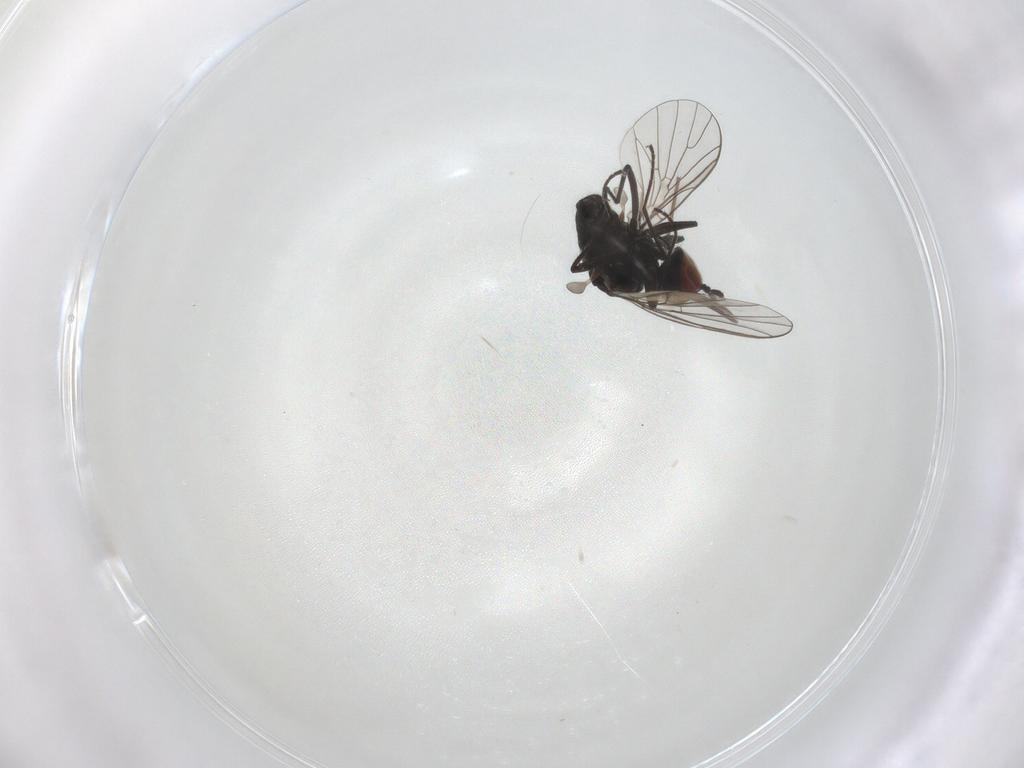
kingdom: Animalia
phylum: Arthropoda
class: Insecta
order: Diptera
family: Bombyliidae
